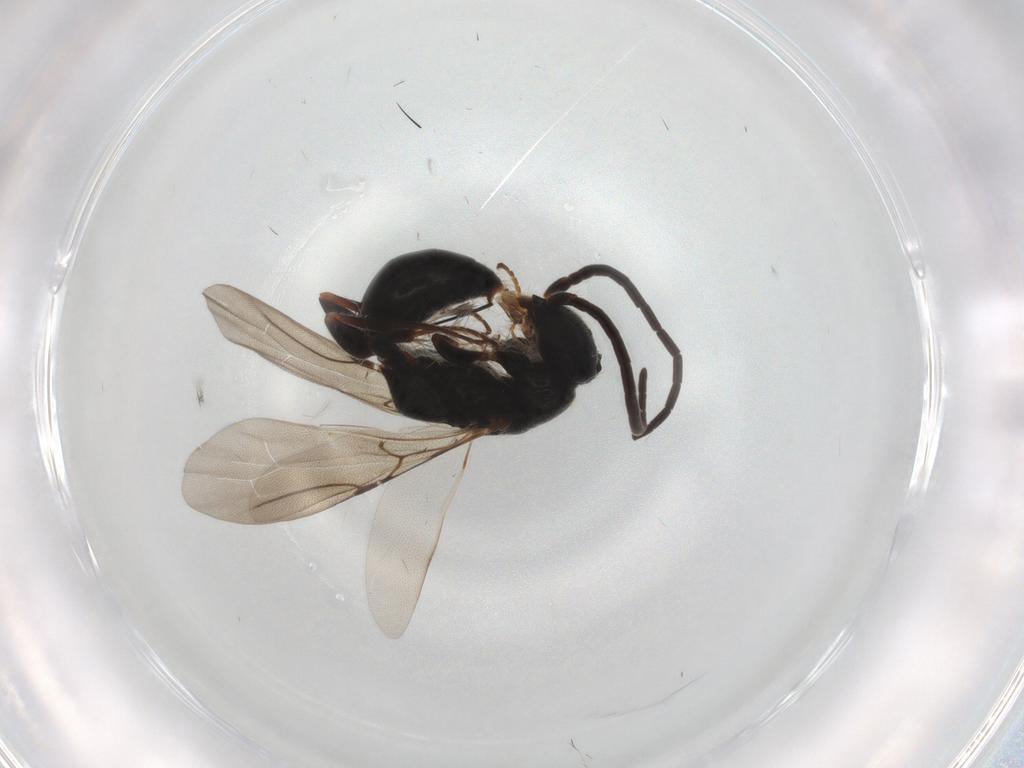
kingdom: Animalia
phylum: Arthropoda
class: Insecta
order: Hymenoptera
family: Bethylidae
